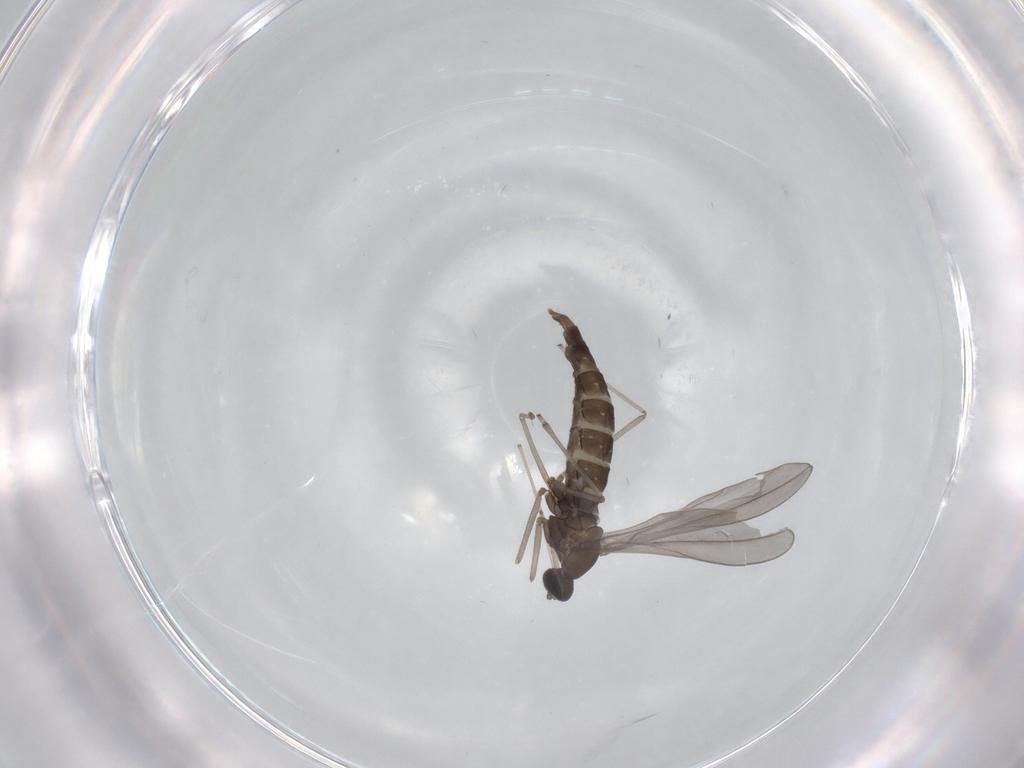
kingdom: Animalia
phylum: Arthropoda
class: Insecta
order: Diptera
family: Cecidomyiidae
